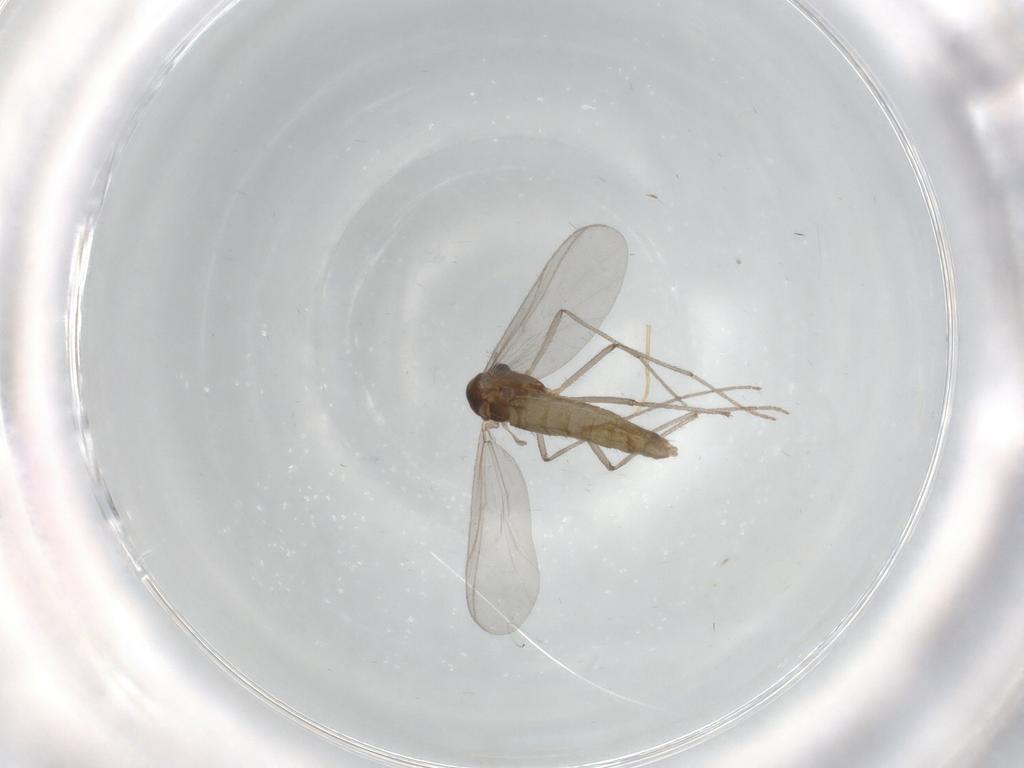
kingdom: Animalia
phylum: Arthropoda
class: Insecta
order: Diptera
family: Chironomidae
